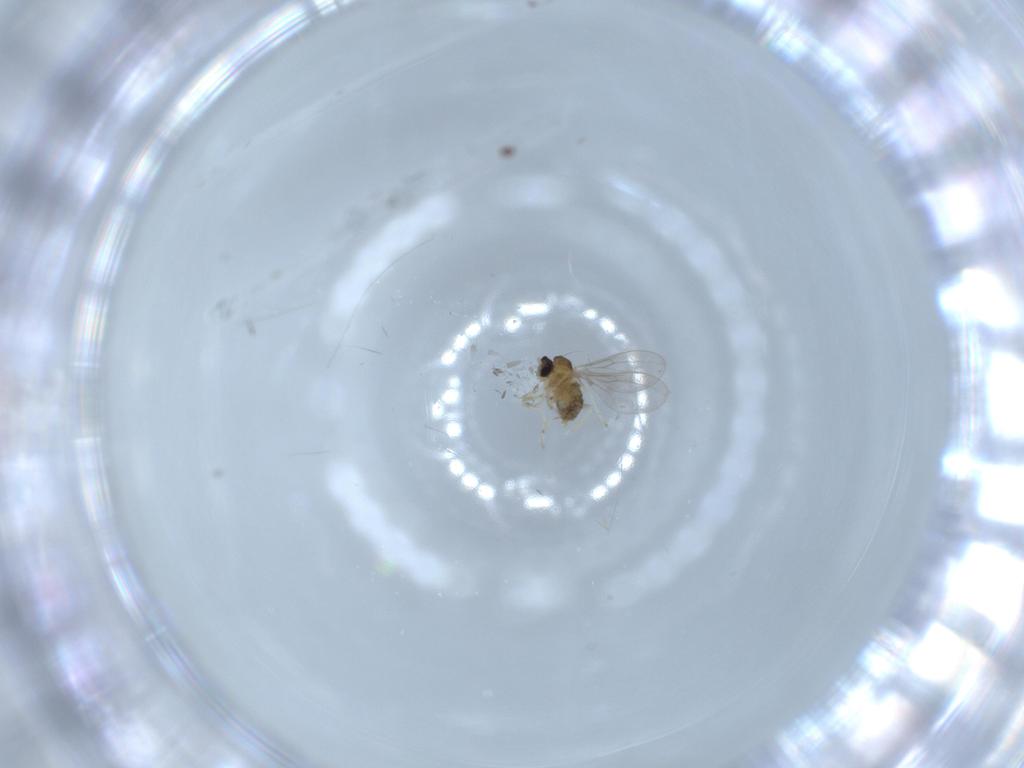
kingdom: Animalia
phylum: Arthropoda
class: Insecta
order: Diptera
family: Cecidomyiidae
